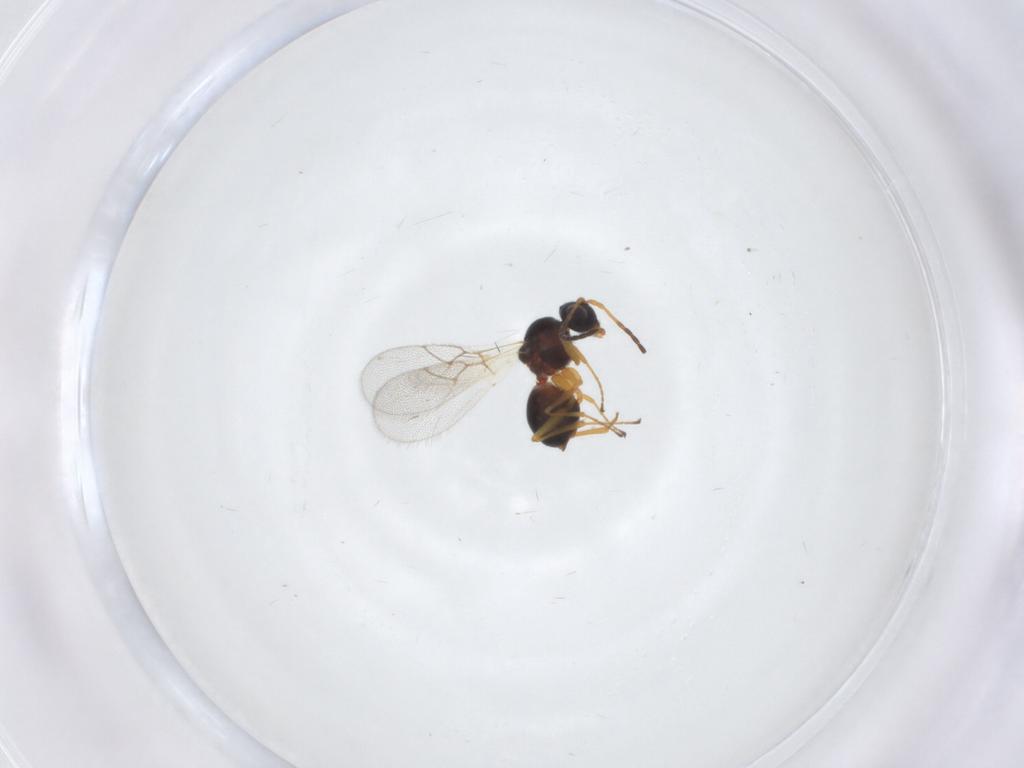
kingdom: Animalia
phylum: Arthropoda
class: Insecta
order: Hymenoptera
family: Figitidae
